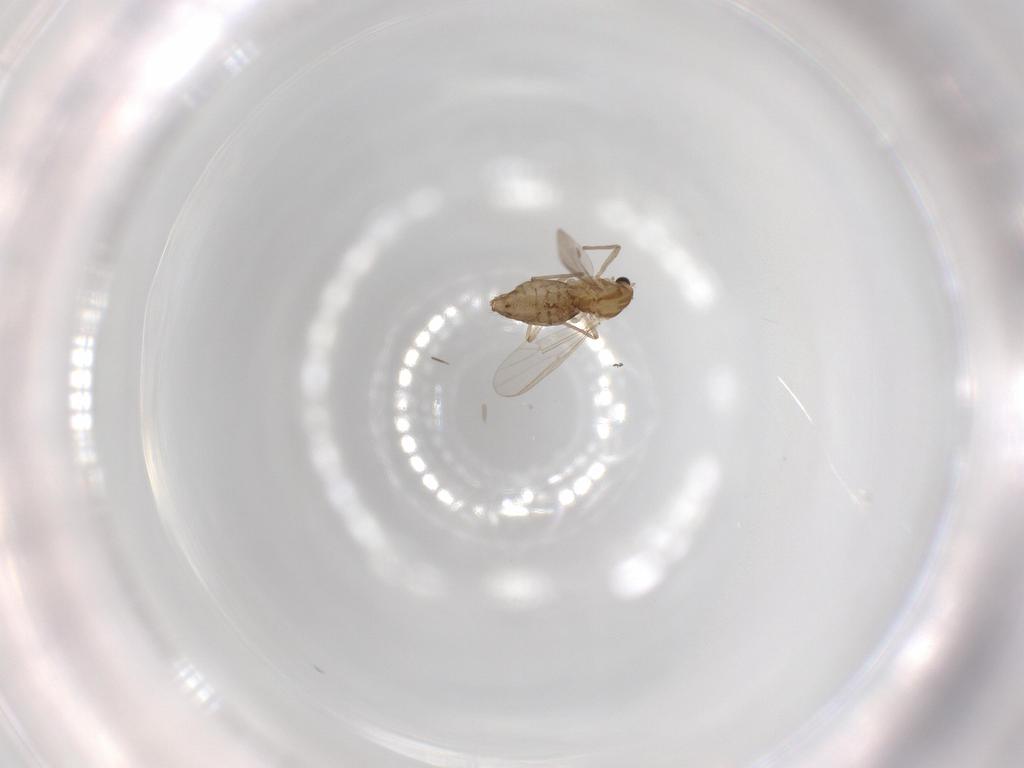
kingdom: Animalia
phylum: Arthropoda
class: Insecta
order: Diptera
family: Chironomidae
